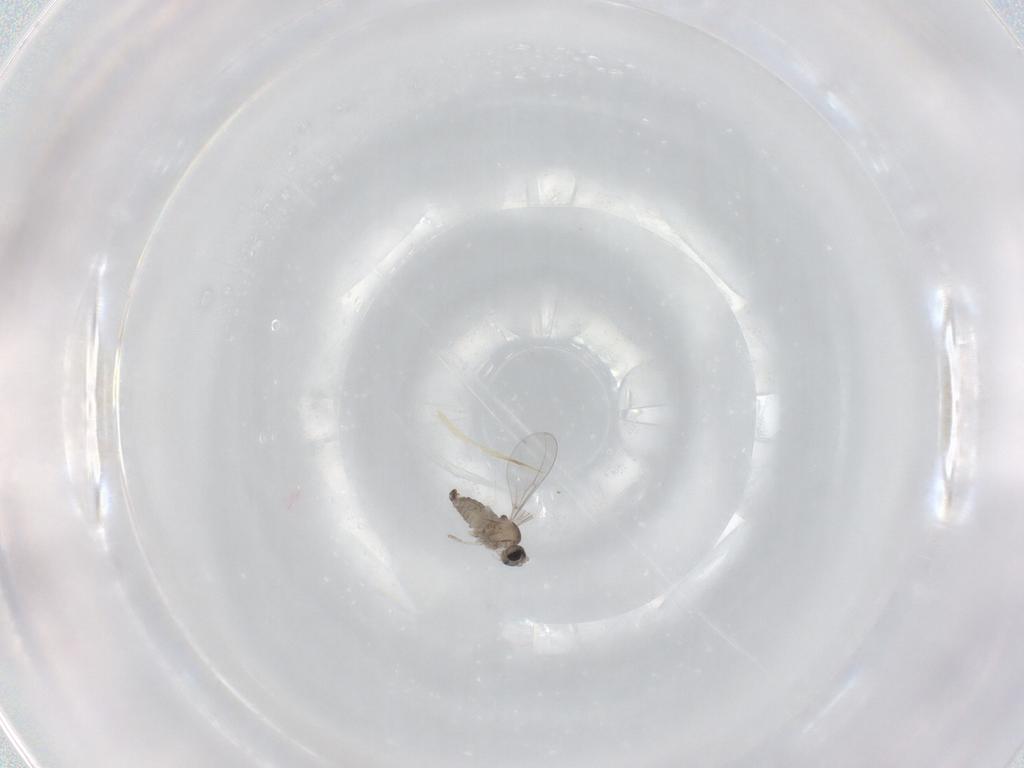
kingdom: Animalia
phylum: Arthropoda
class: Insecta
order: Diptera
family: Cecidomyiidae
